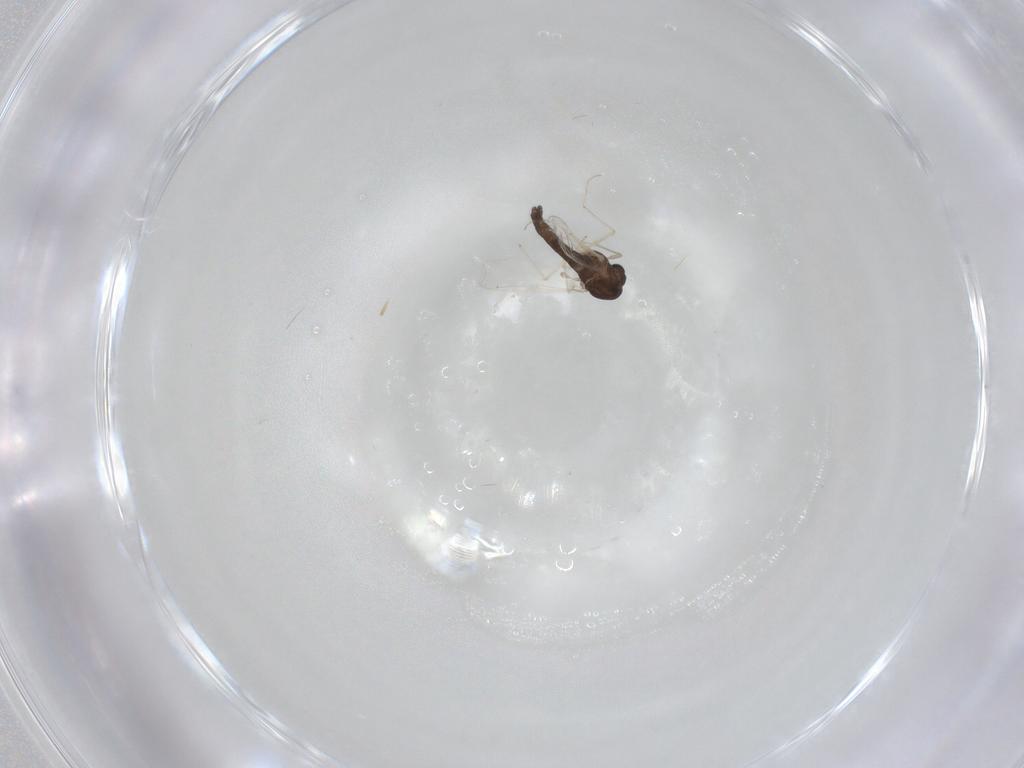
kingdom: Animalia
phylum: Arthropoda
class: Insecta
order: Diptera
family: Chironomidae
